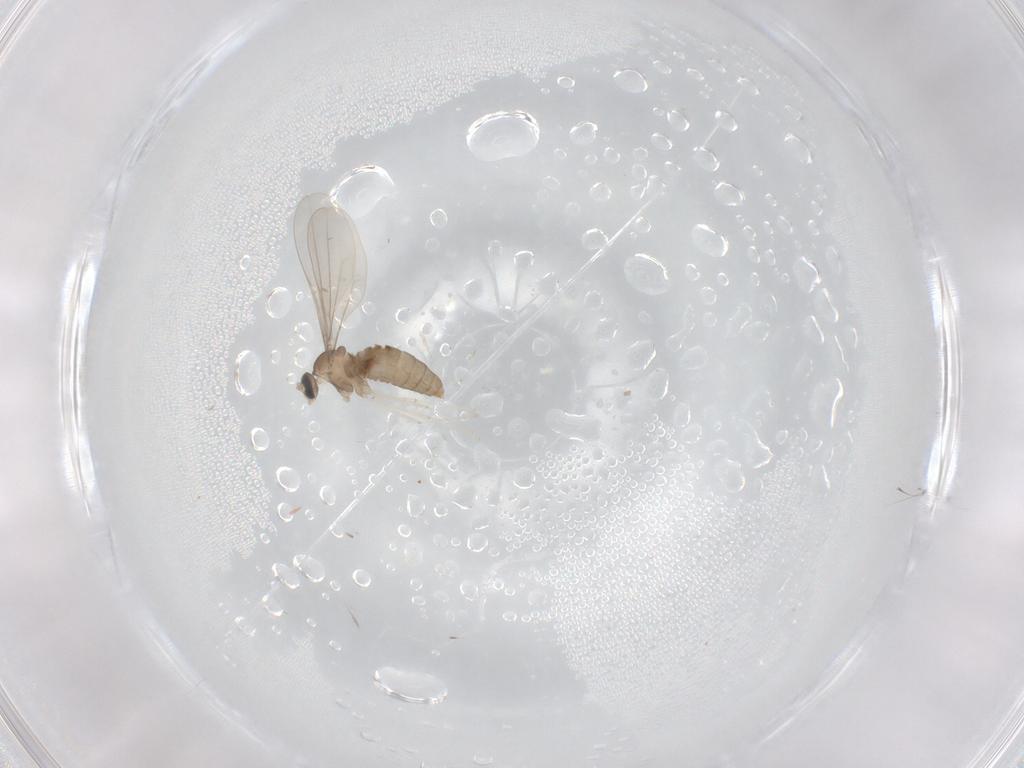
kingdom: Animalia
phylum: Arthropoda
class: Insecta
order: Diptera
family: Cecidomyiidae
